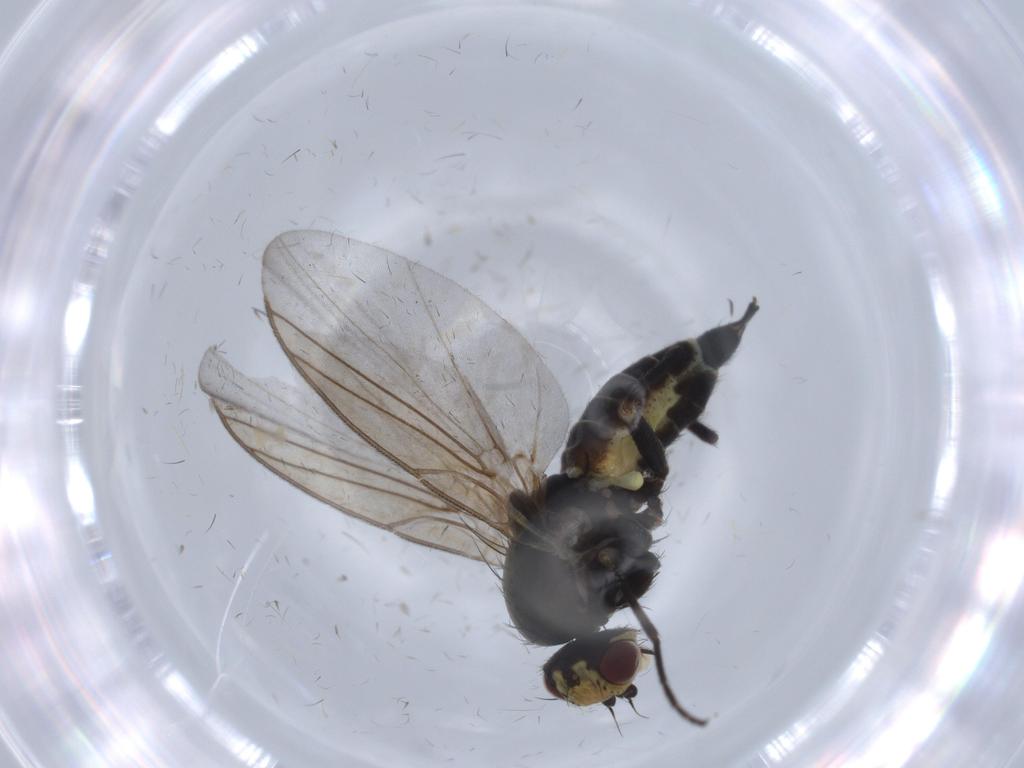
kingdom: Animalia
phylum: Arthropoda
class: Insecta
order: Diptera
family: Rhagionidae
